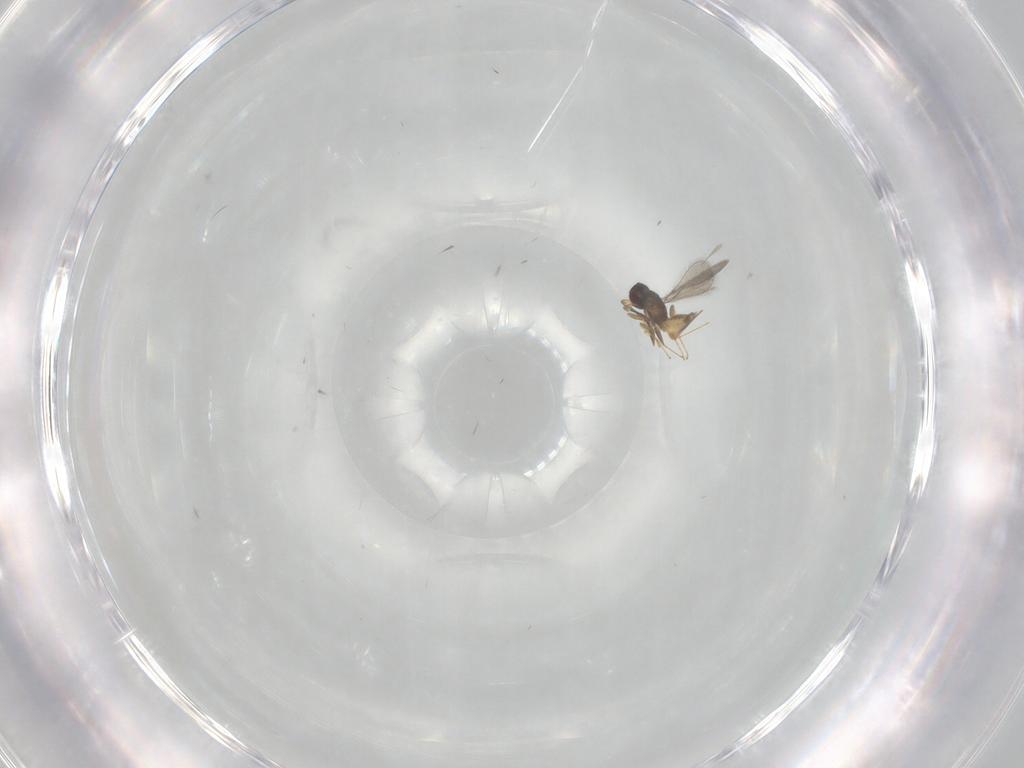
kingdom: Animalia
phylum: Arthropoda
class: Insecta
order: Hymenoptera
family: Mymaridae
